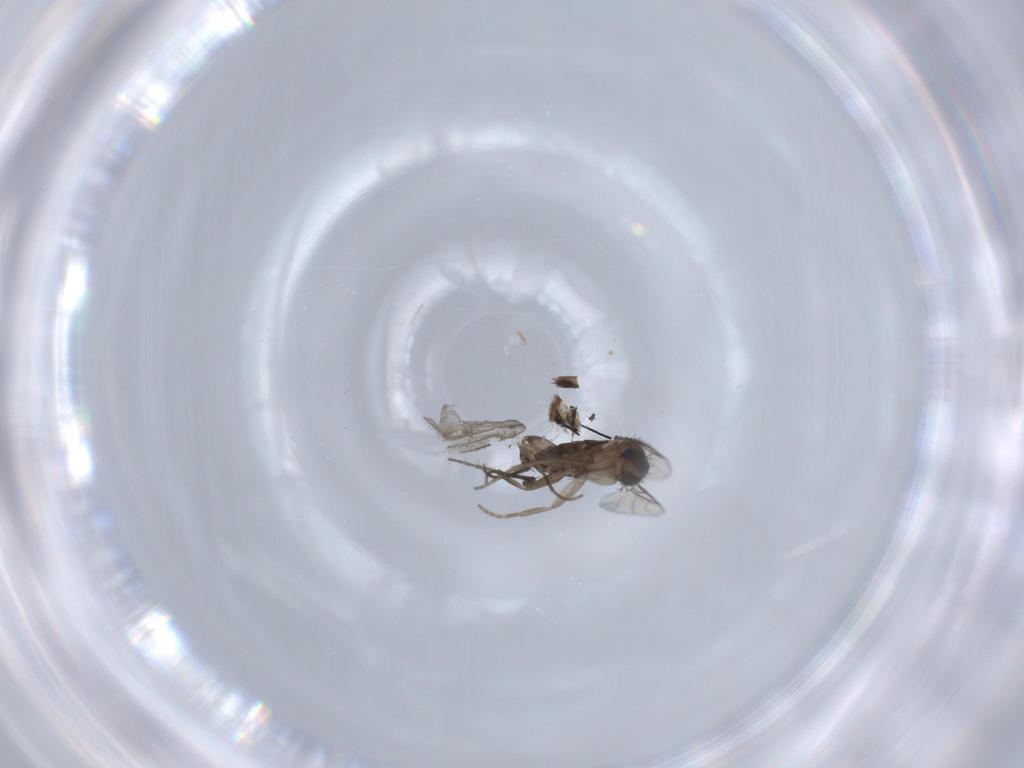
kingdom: Animalia
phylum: Arthropoda
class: Insecta
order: Diptera
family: Phoridae
